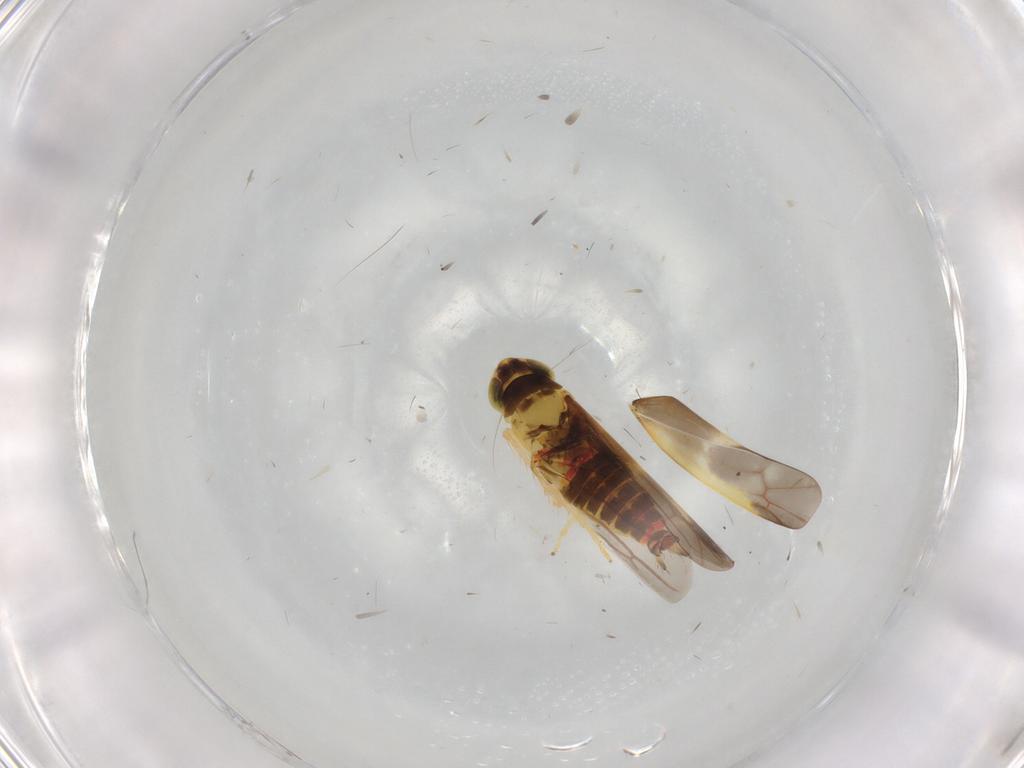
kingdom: Animalia
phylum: Arthropoda
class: Insecta
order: Hemiptera
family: Cicadellidae
